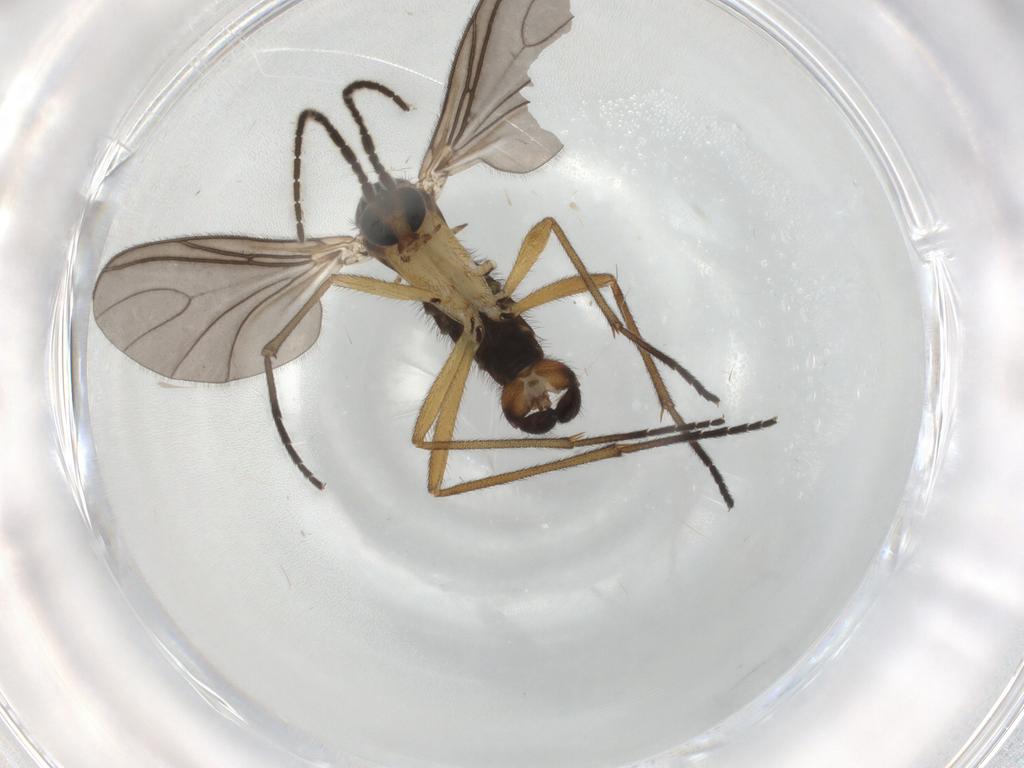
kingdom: Animalia
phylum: Arthropoda
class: Insecta
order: Diptera
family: Sciaridae
